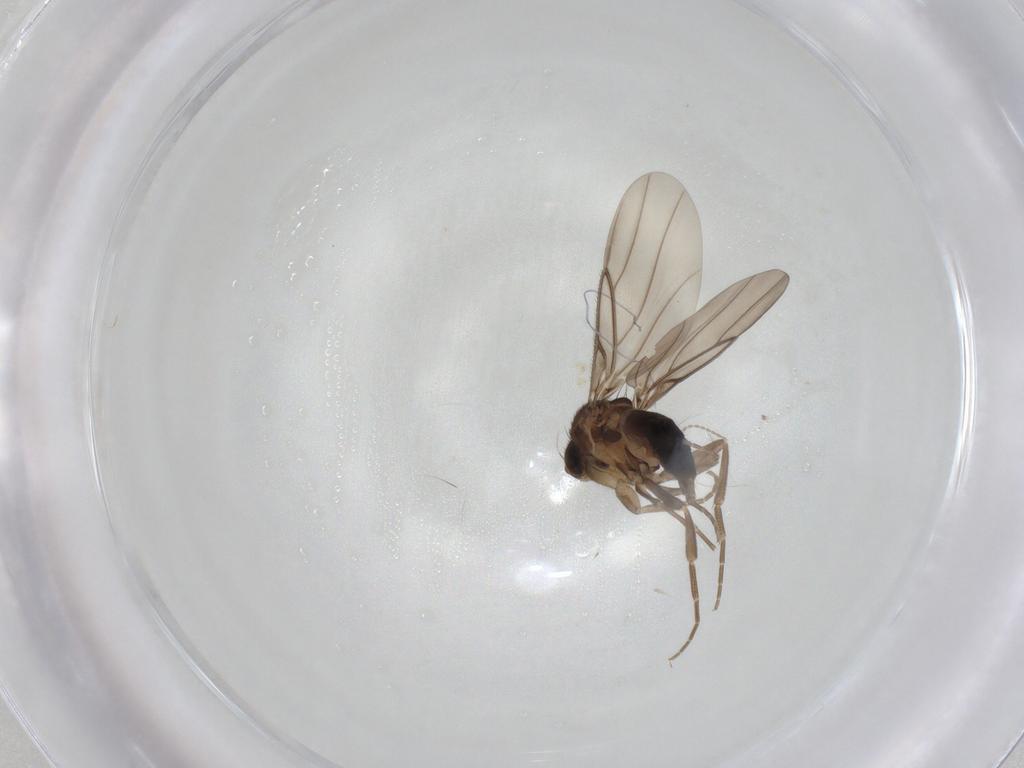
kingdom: Animalia
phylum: Arthropoda
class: Insecta
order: Diptera
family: Phoridae
